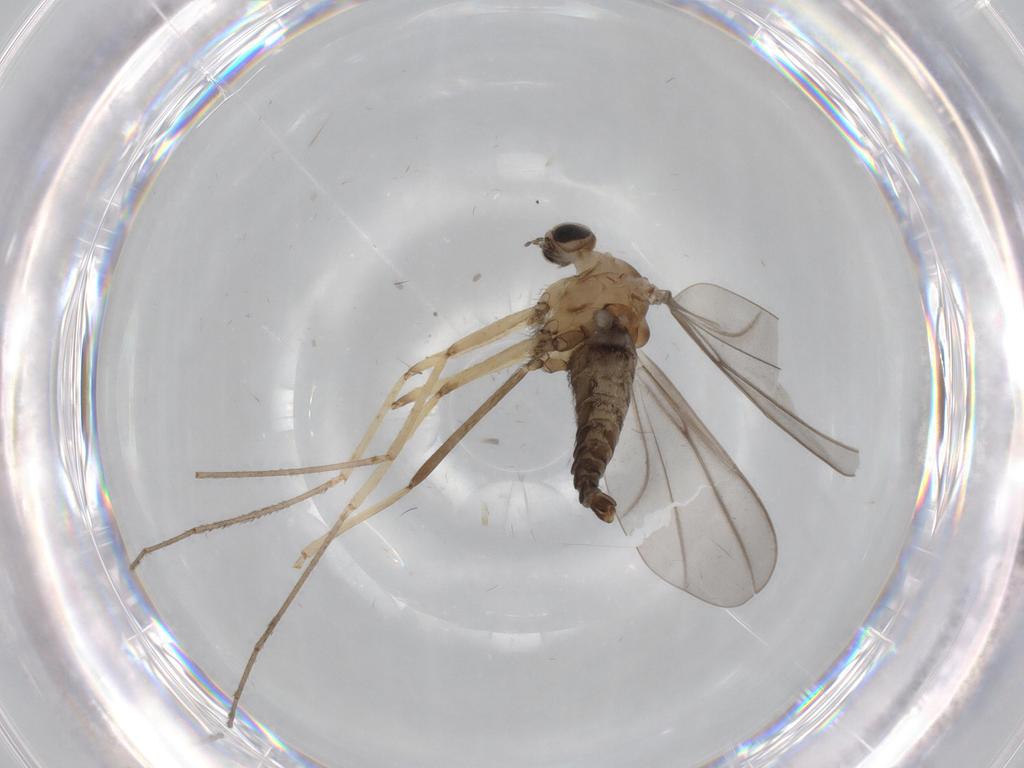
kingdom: Animalia
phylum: Arthropoda
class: Insecta
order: Diptera
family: Cecidomyiidae
